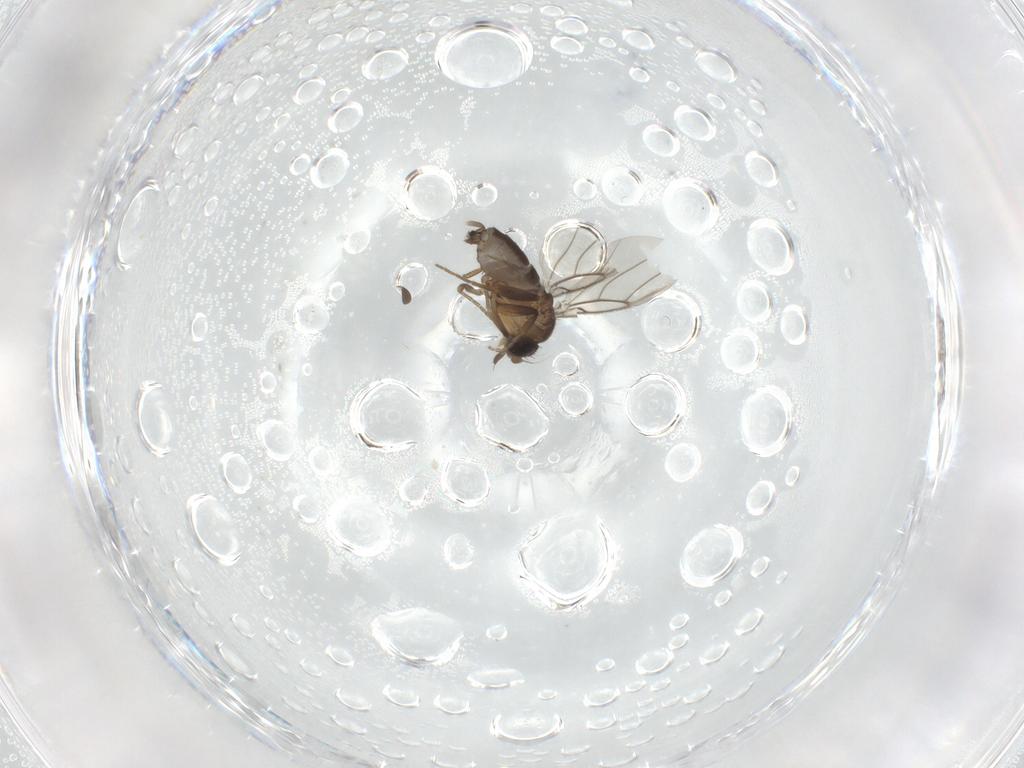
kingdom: Animalia
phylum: Arthropoda
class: Insecta
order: Diptera
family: Phoridae
